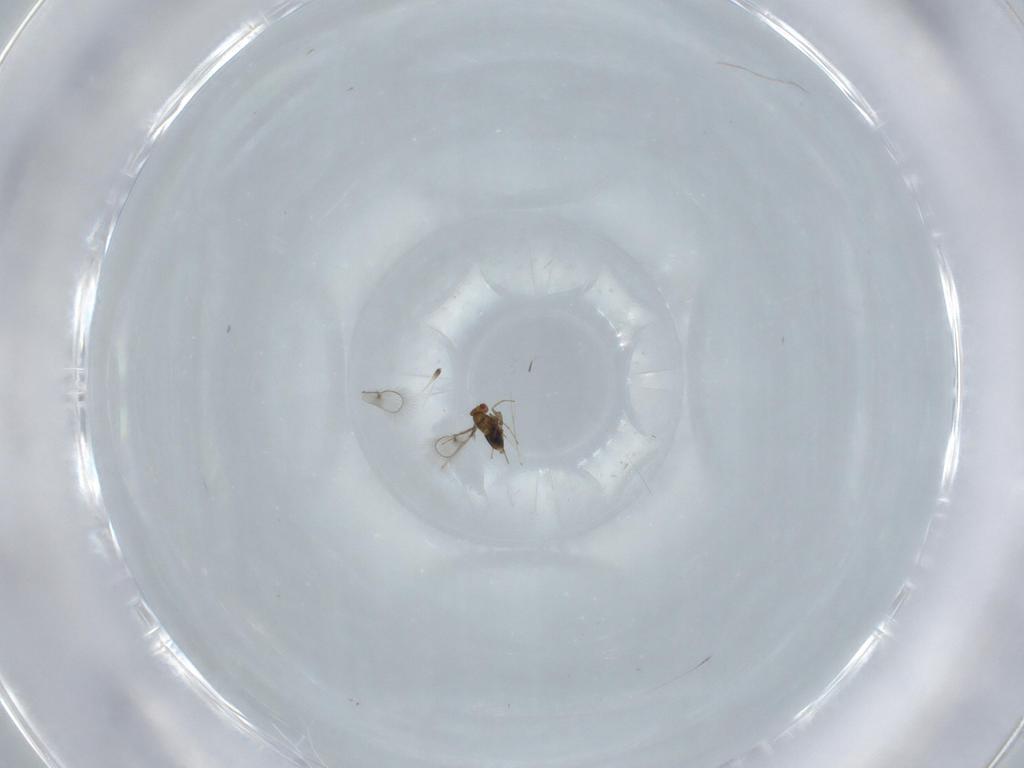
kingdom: Animalia
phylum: Arthropoda
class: Insecta
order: Hymenoptera
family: Trichogrammatidae
